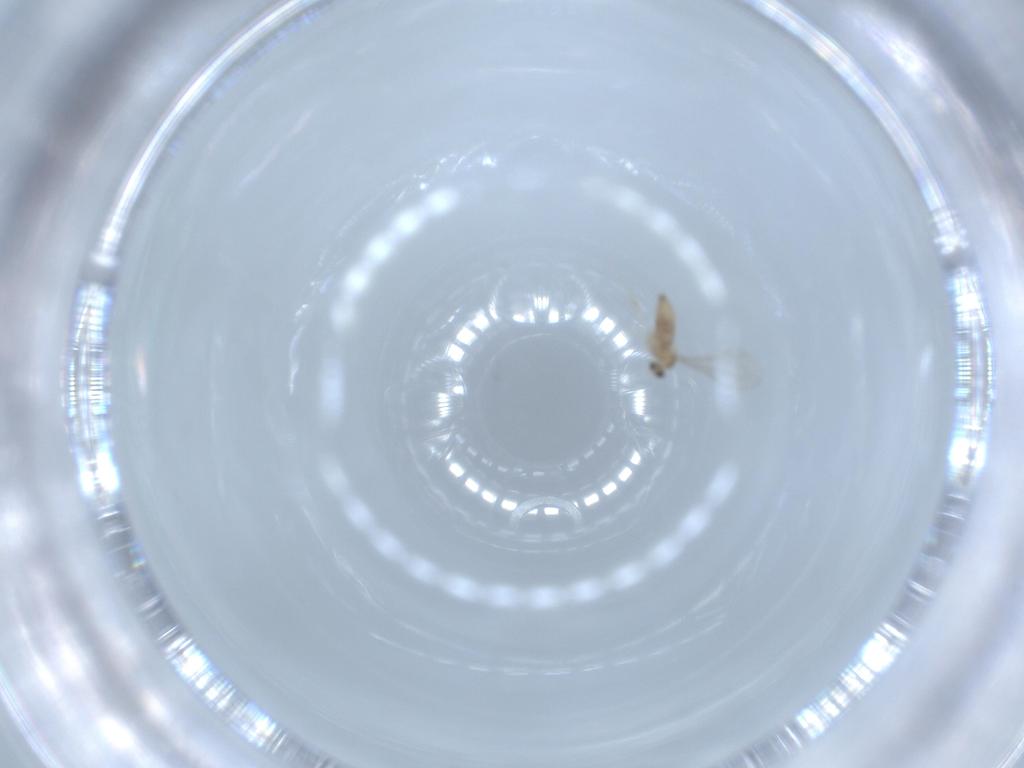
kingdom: Animalia
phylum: Arthropoda
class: Insecta
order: Diptera
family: Cecidomyiidae
